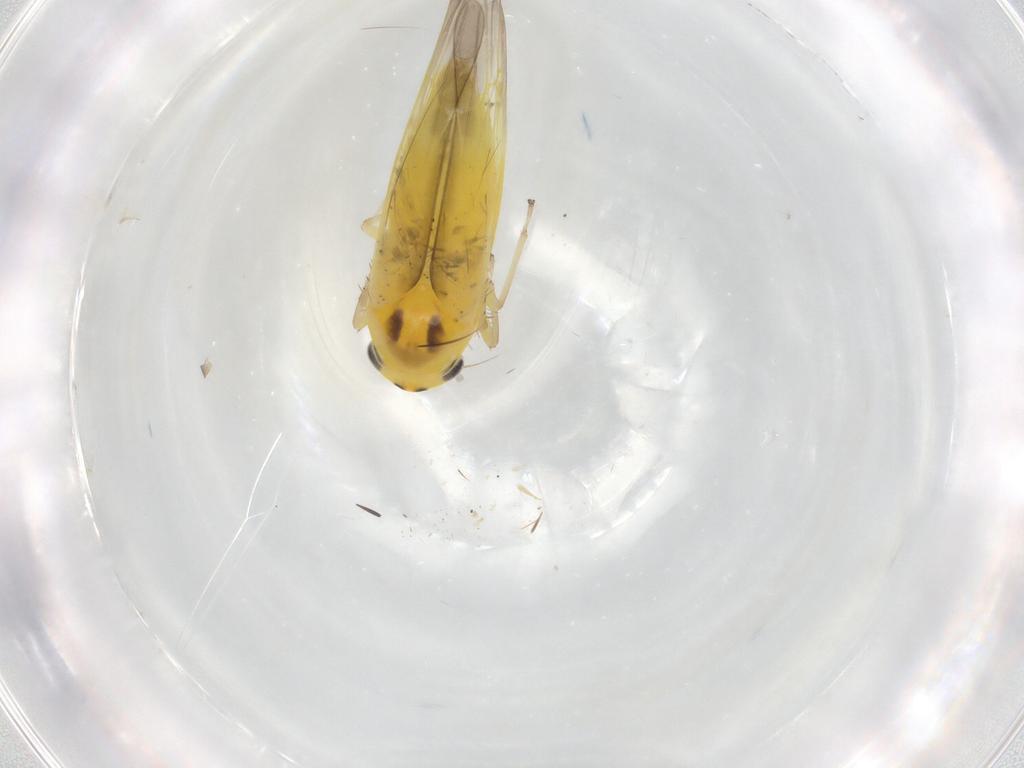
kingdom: Animalia
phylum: Arthropoda
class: Insecta
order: Hemiptera
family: Cicadellidae
